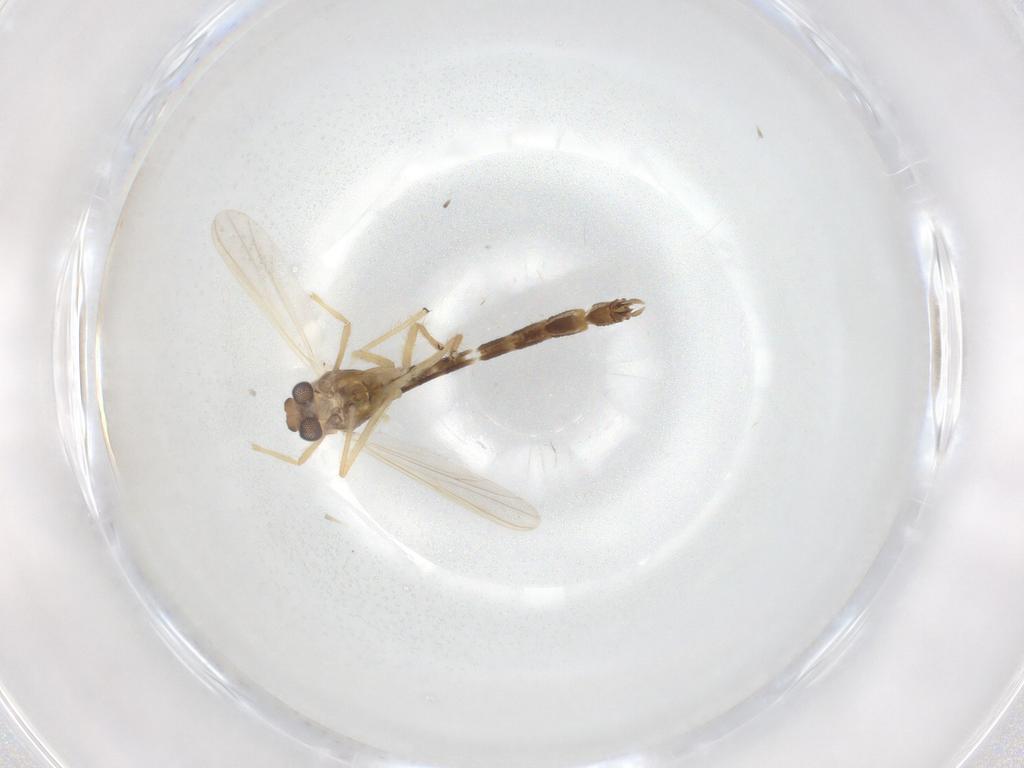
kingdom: Animalia
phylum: Arthropoda
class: Insecta
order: Diptera
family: Chironomidae
